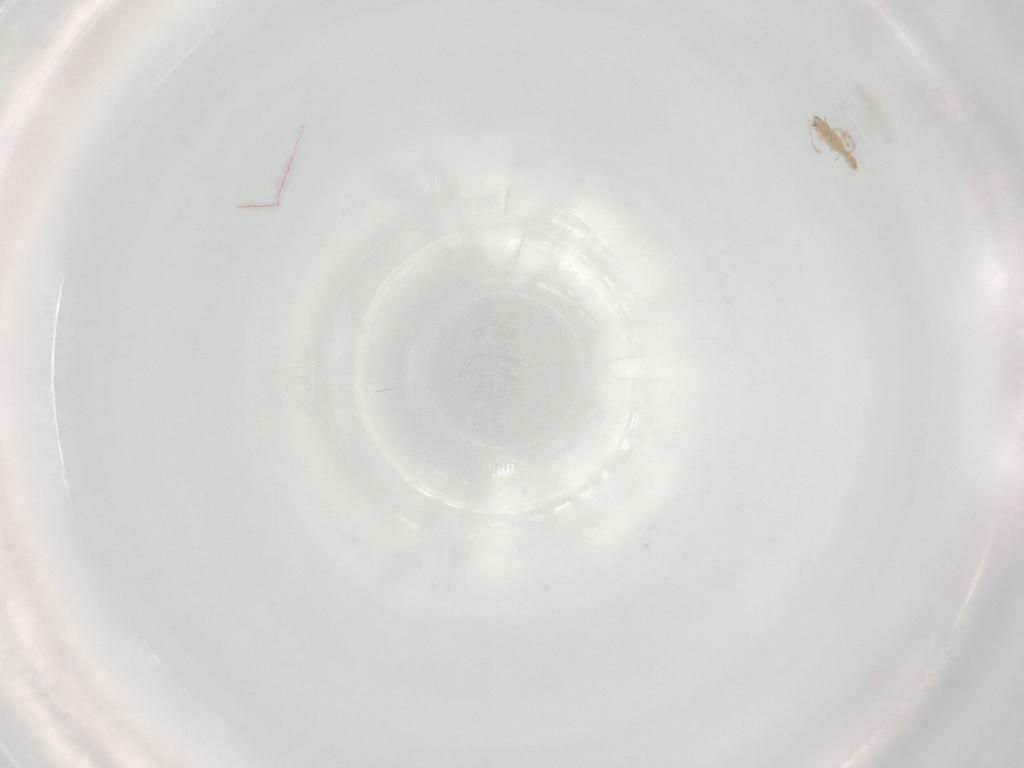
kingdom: Animalia
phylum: Arthropoda
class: Arachnida
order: Trombidiformes
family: Erythraeidae
